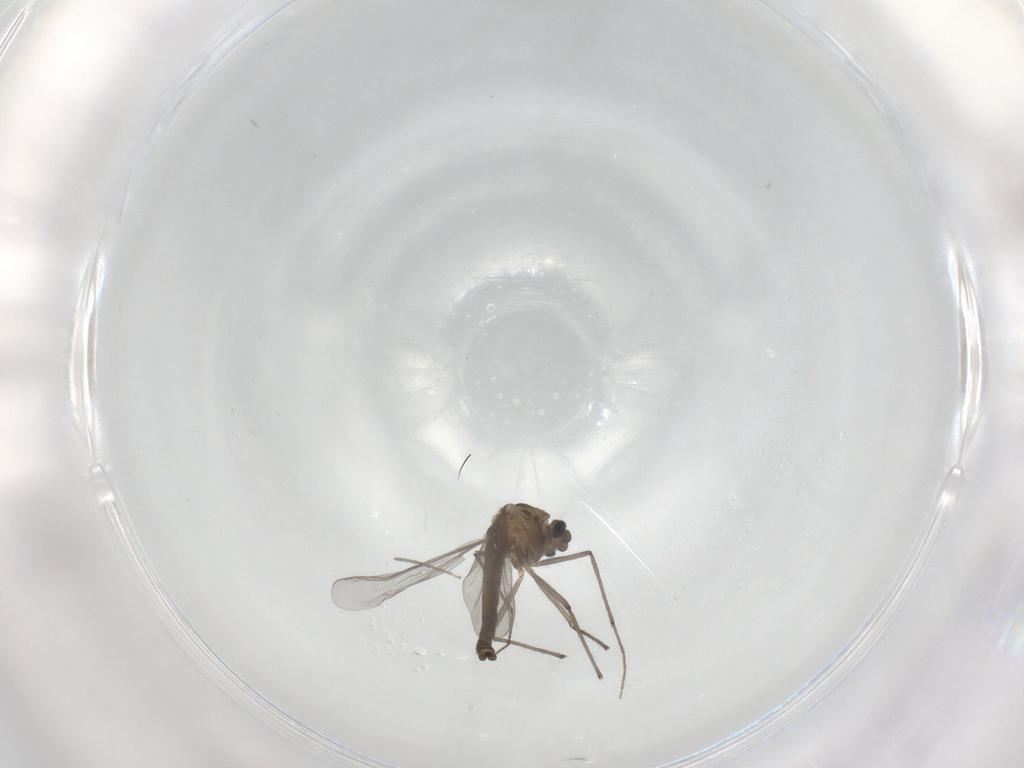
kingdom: Animalia
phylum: Arthropoda
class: Insecta
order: Diptera
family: Chironomidae
